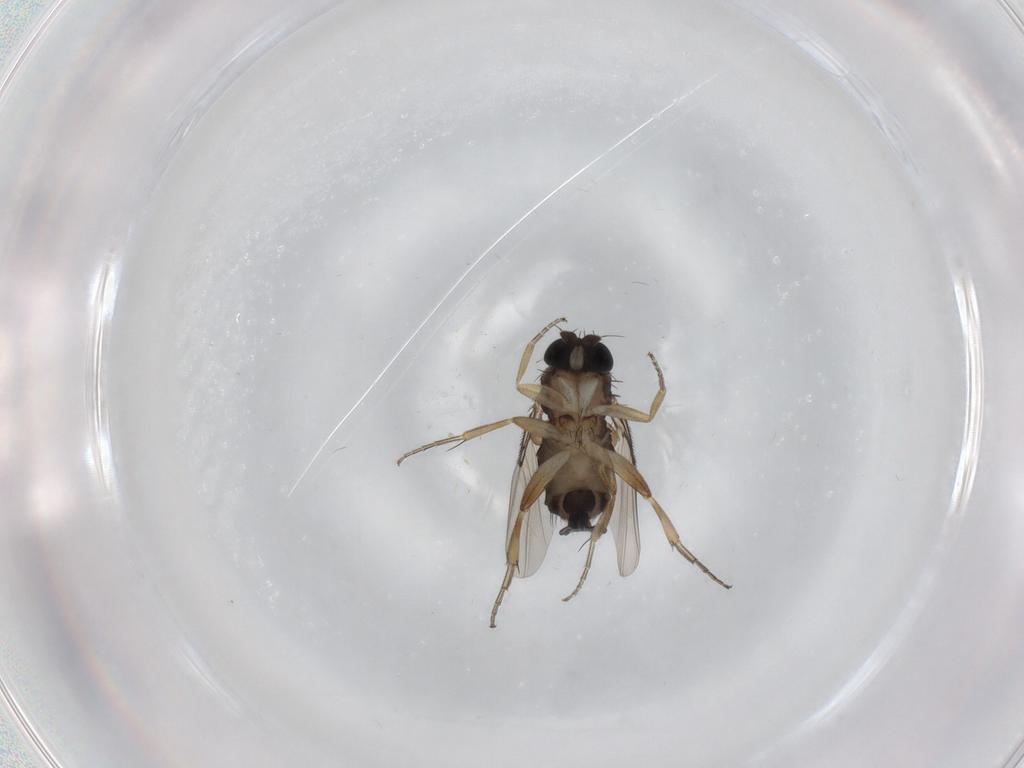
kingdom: Animalia
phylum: Arthropoda
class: Insecta
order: Diptera
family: Phoridae
